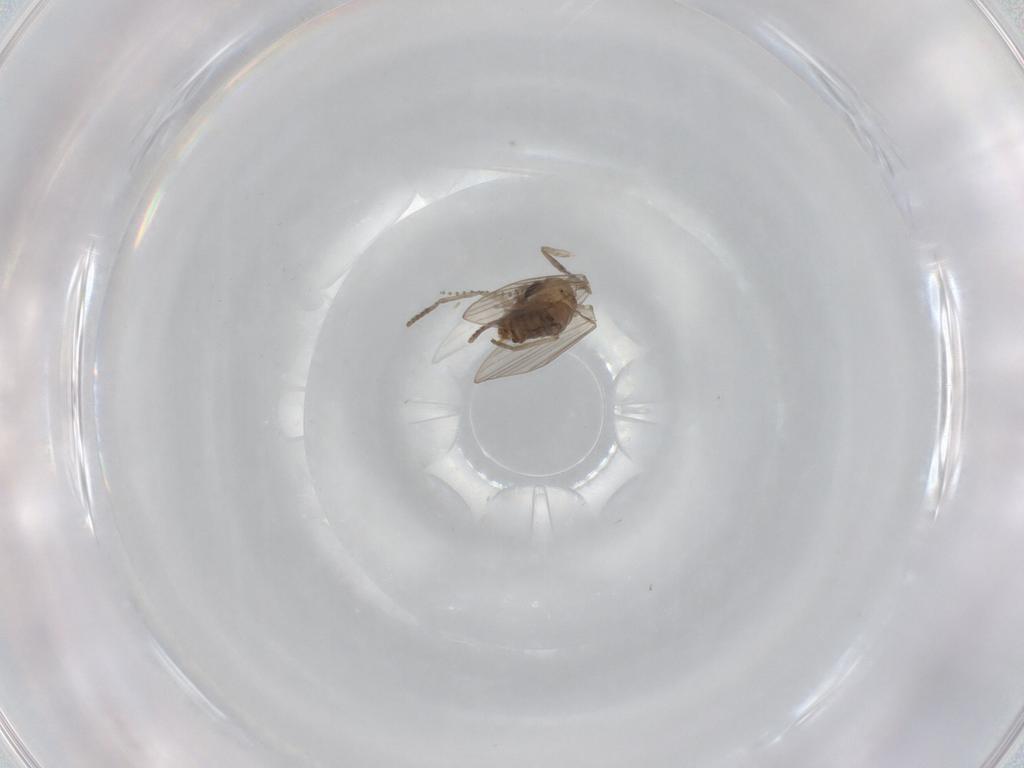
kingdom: Animalia
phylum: Arthropoda
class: Insecta
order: Diptera
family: Psychodidae
